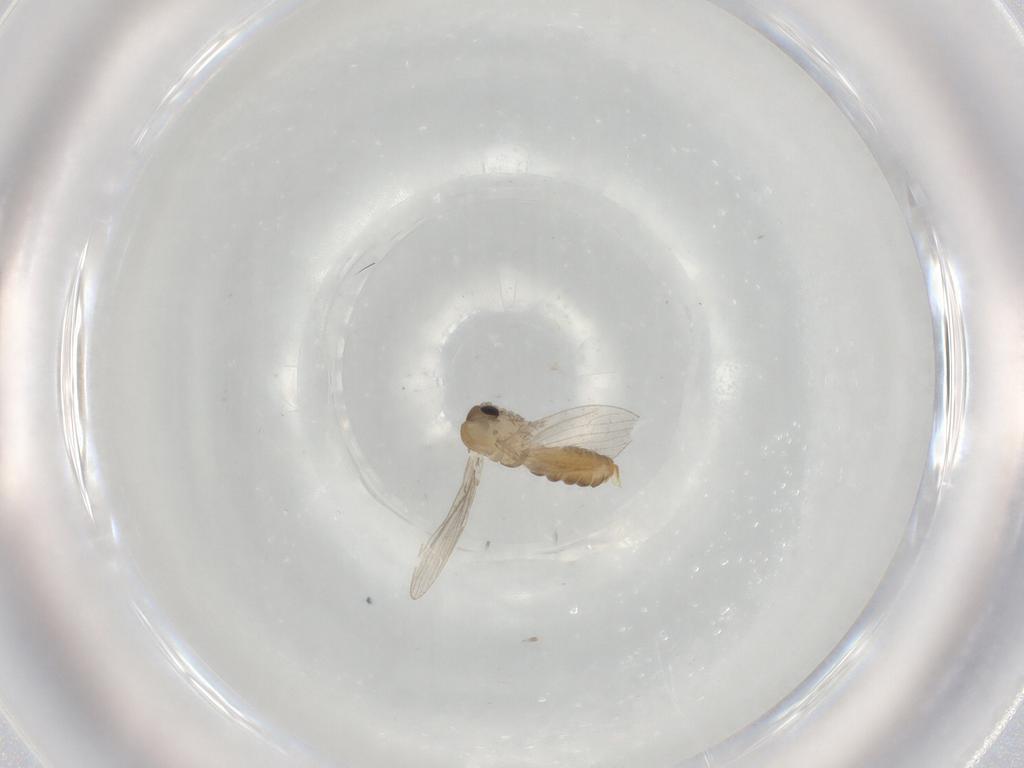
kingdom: Animalia
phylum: Arthropoda
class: Insecta
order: Diptera
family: Psychodidae
